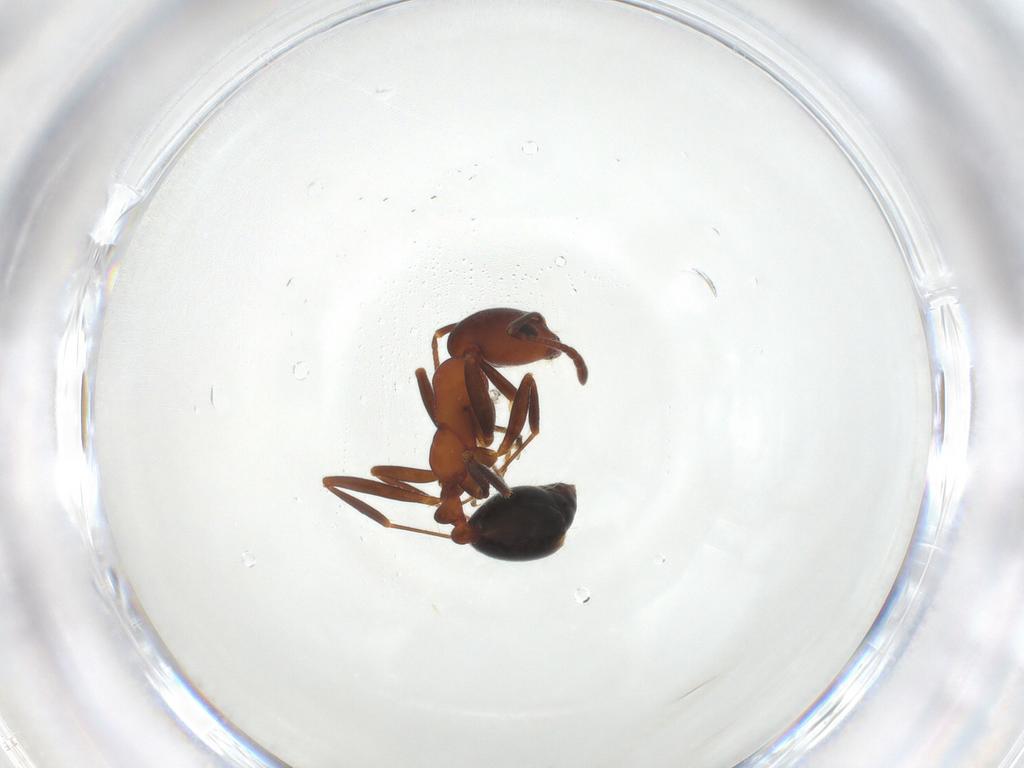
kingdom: Animalia
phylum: Arthropoda
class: Insecta
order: Hymenoptera
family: Formicidae
